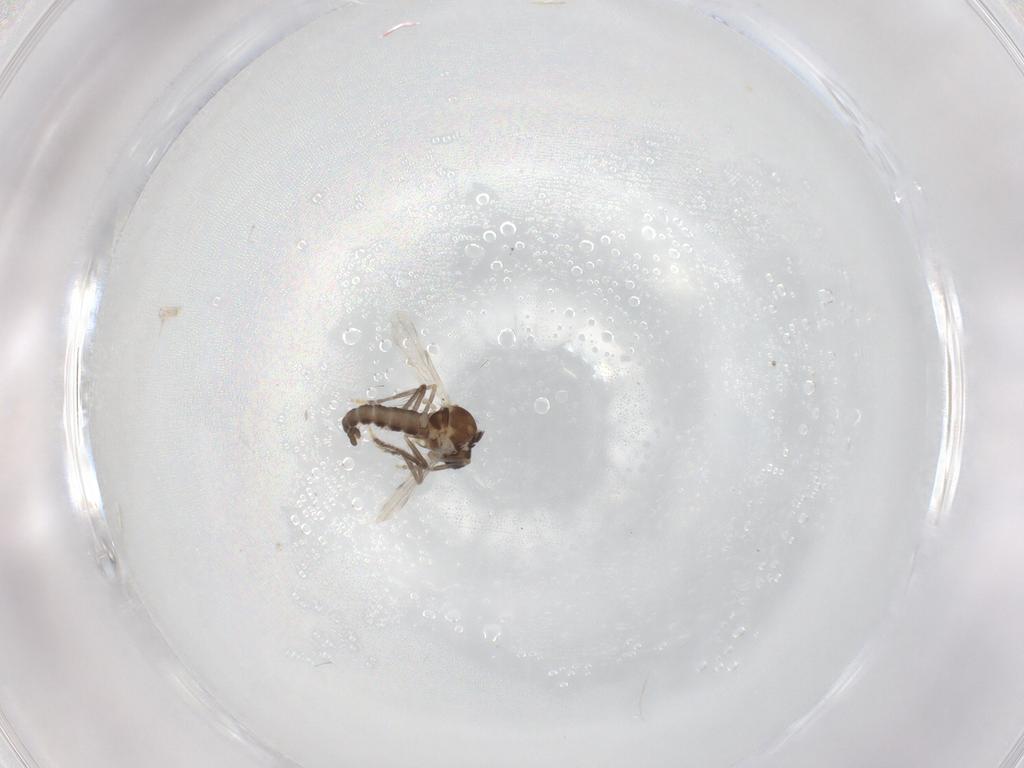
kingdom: Animalia
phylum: Arthropoda
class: Insecta
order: Diptera
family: Ceratopogonidae
